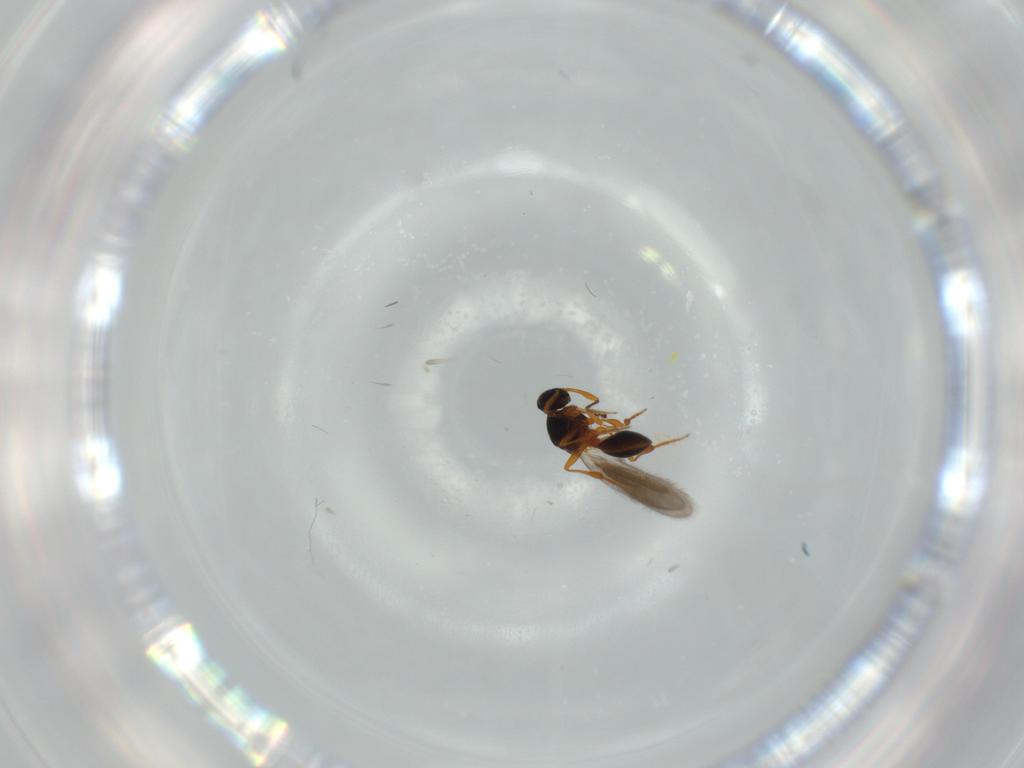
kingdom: Animalia
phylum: Arthropoda
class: Insecta
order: Hymenoptera
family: Platygastridae
